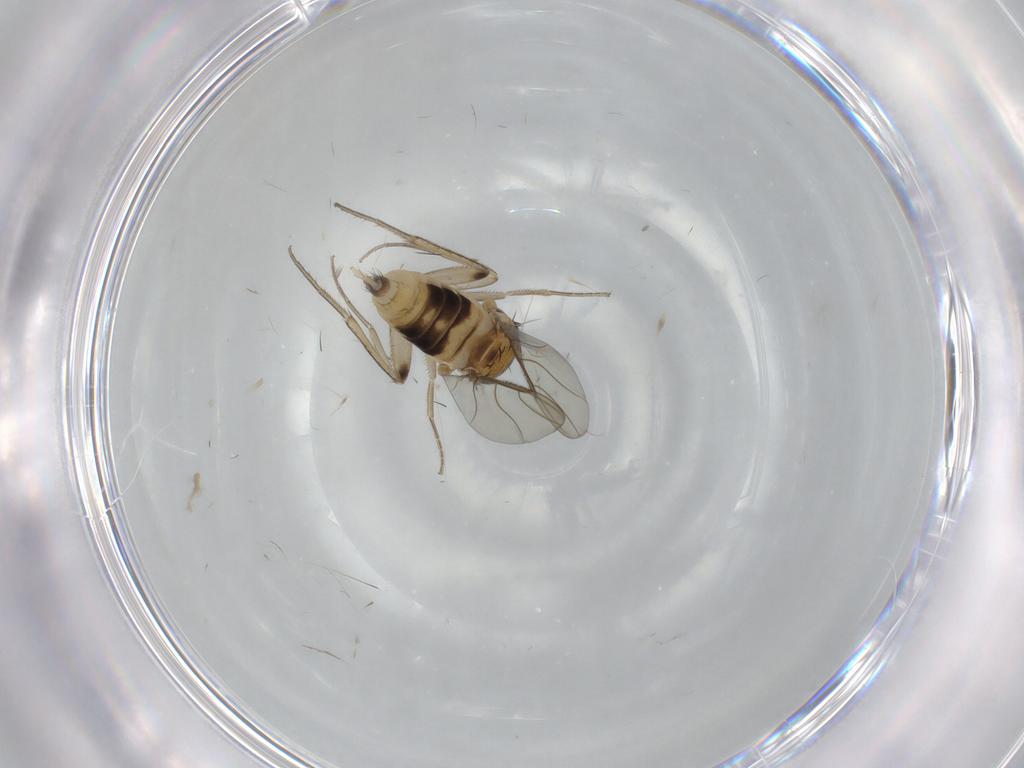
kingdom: Animalia
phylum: Arthropoda
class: Insecta
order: Diptera
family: Phoridae
